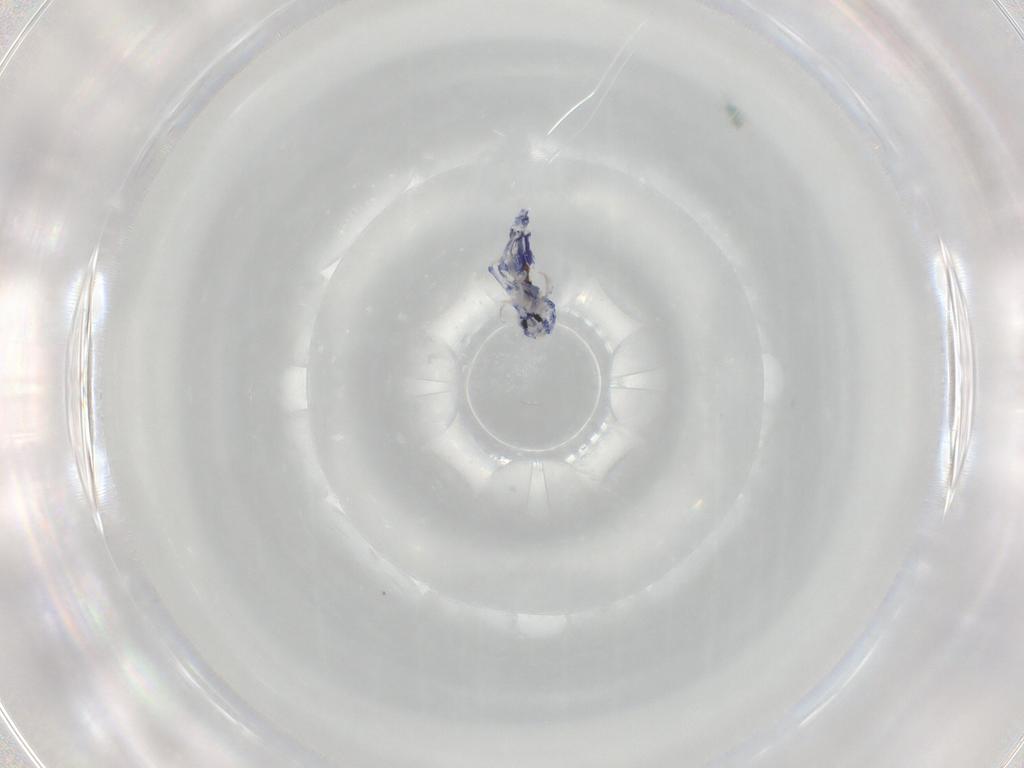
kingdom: Animalia
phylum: Arthropoda
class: Collembola
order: Entomobryomorpha
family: Entomobryidae
